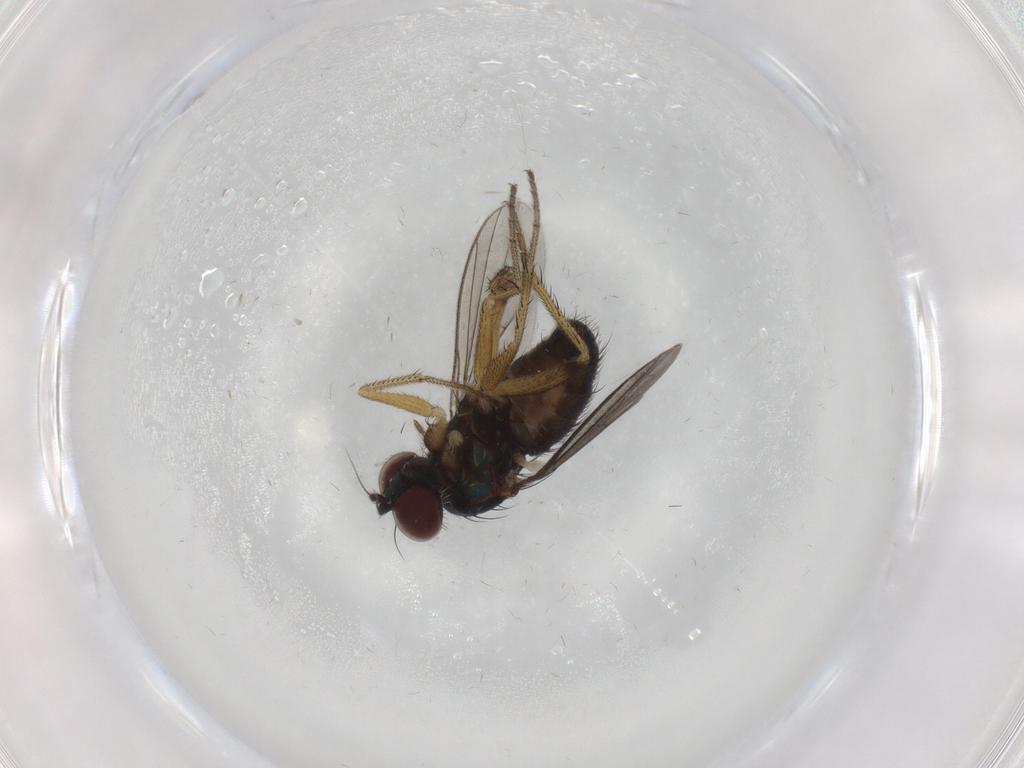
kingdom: Animalia
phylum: Arthropoda
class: Insecta
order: Diptera
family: Dolichopodidae
